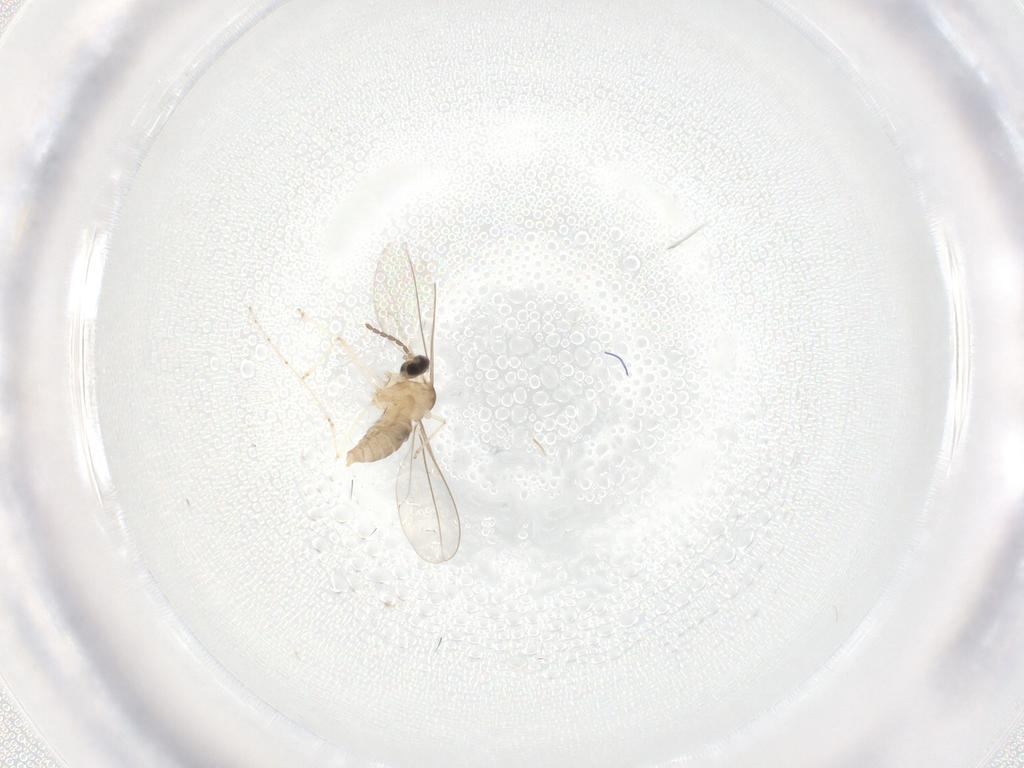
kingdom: Animalia
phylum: Arthropoda
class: Insecta
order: Diptera
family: Cecidomyiidae
